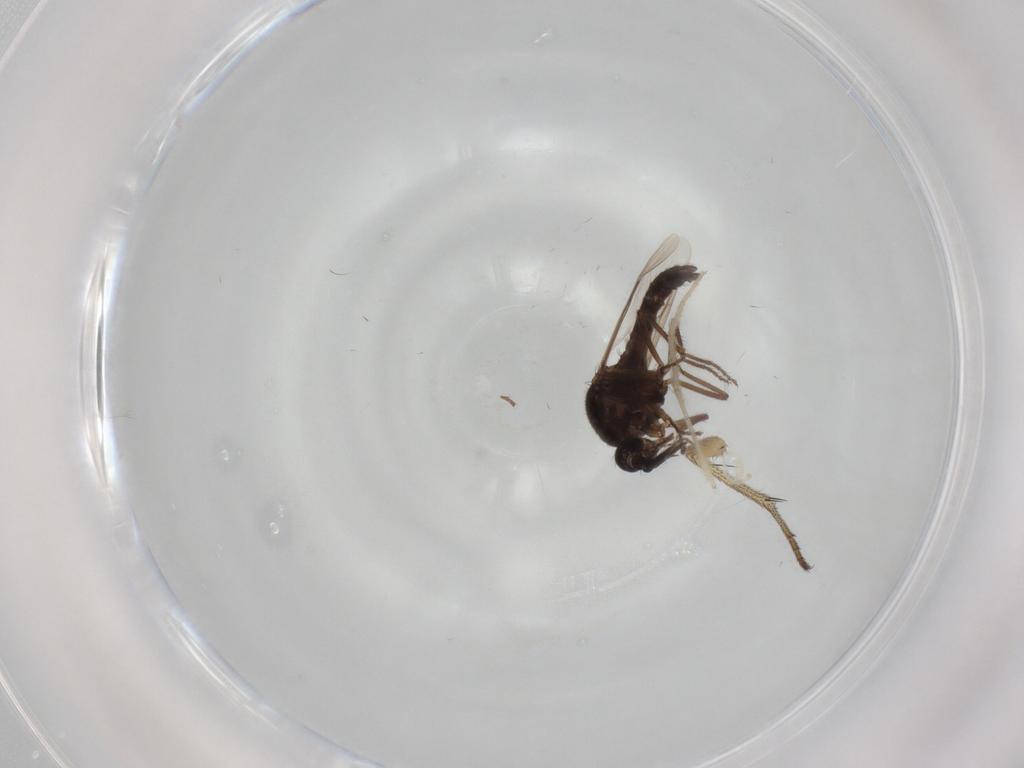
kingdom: Animalia
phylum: Arthropoda
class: Insecta
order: Diptera
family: Ceratopogonidae
